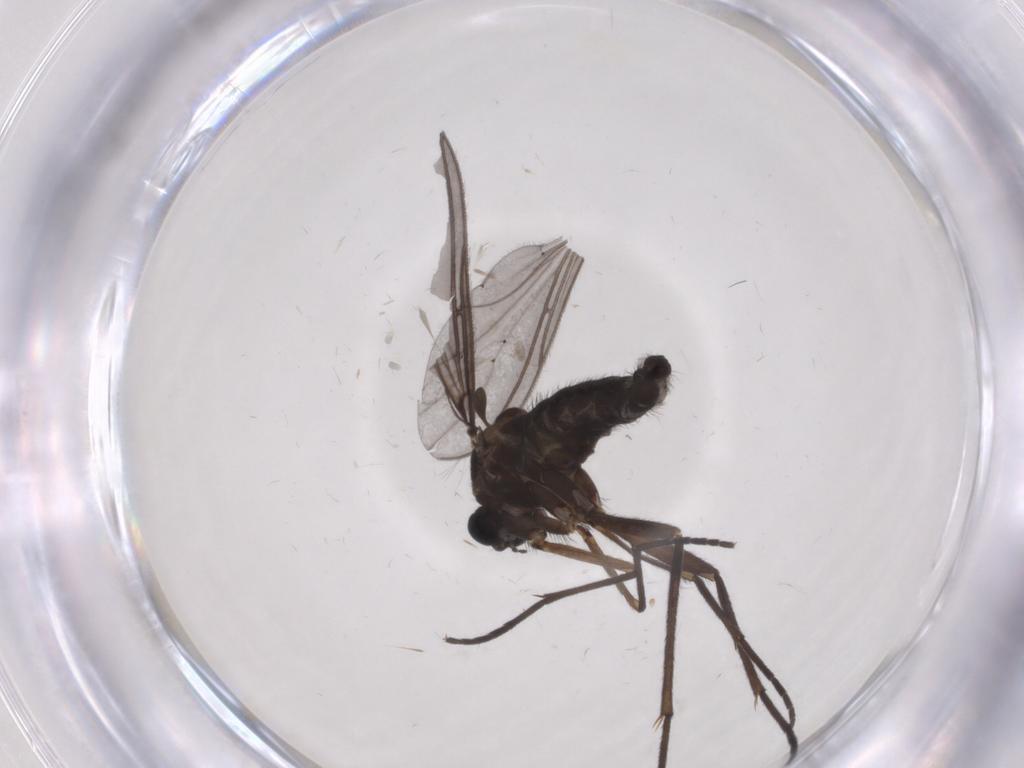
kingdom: Animalia
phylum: Arthropoda
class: Insecta
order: Diptera
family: Sciaridae
